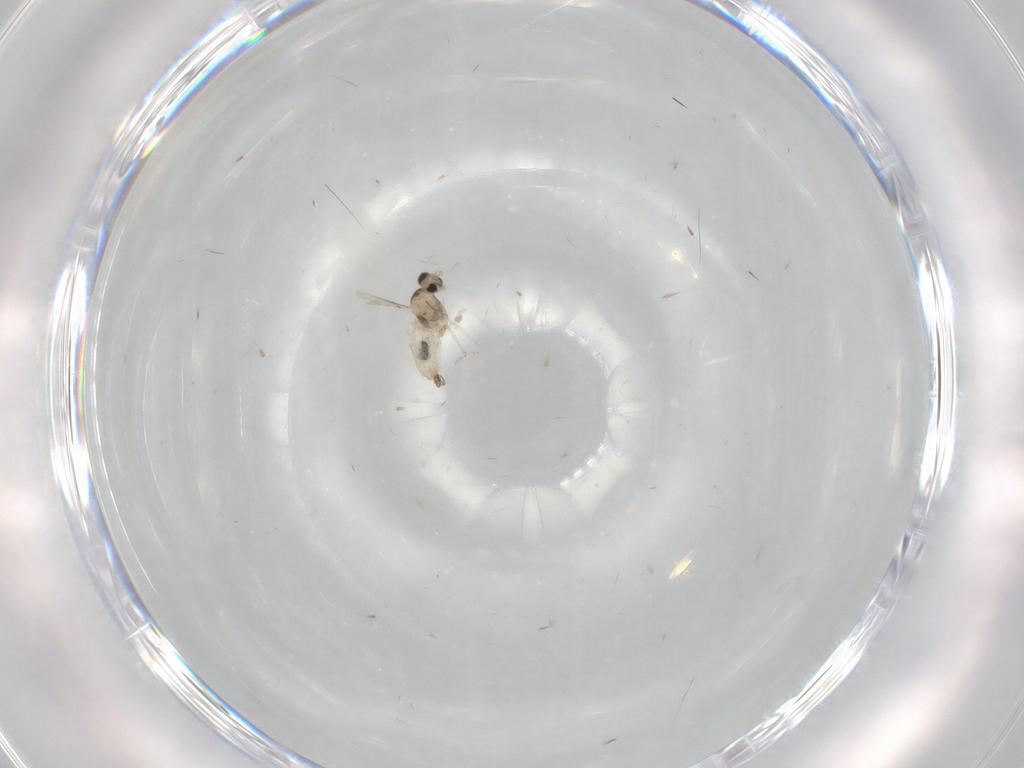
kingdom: Animalia
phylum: Arthropoda
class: Insecta
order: Diptera
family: Cecidomyiidae
